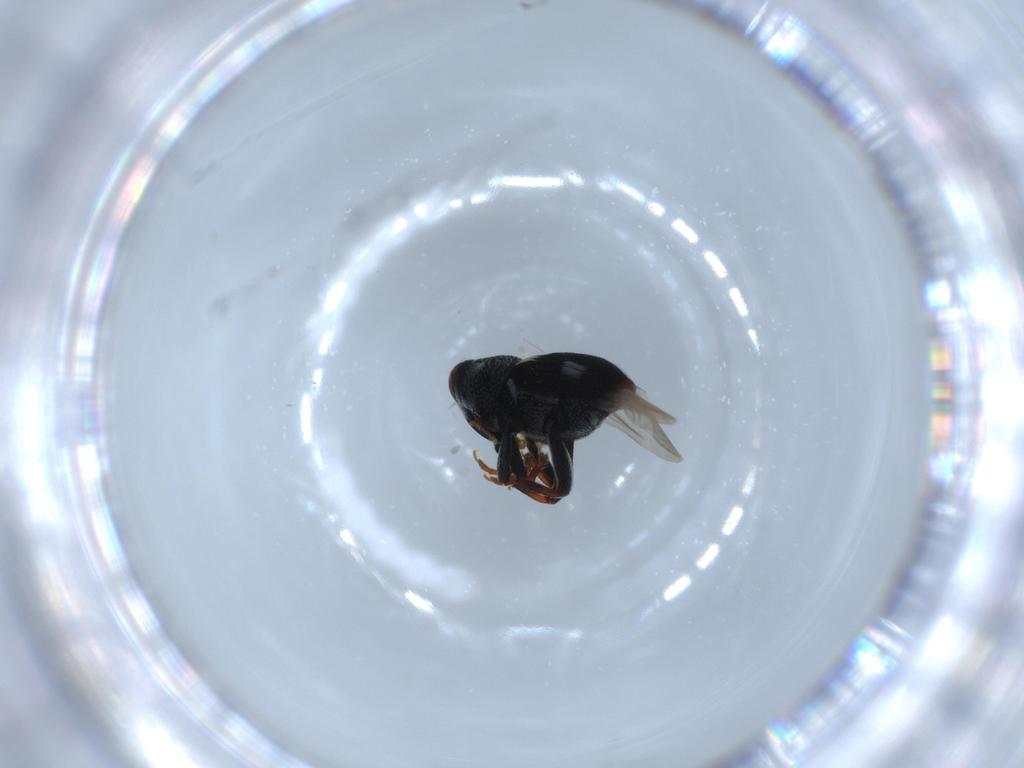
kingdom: Animalia
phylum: Arthropoda
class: Insecta
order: Coleoptera
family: Curculionidae
